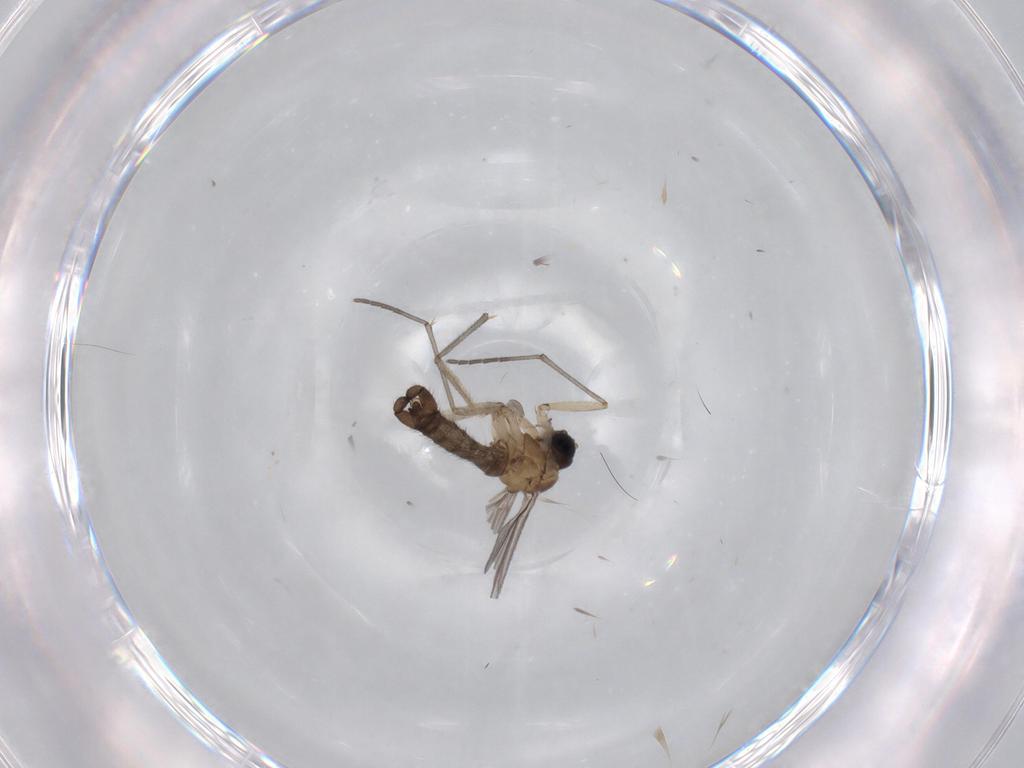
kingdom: Animalia
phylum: Arthropoda
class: Insecta
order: Diptera
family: Sciaridae
